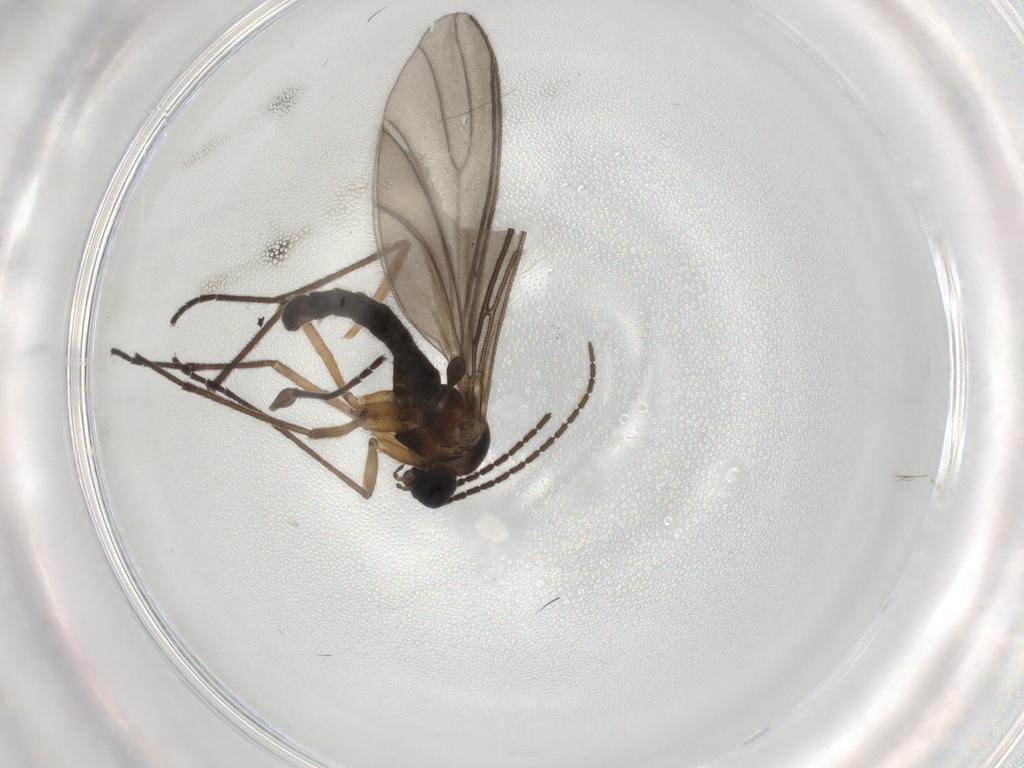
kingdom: Animalia
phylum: Arthropoda
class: Insecta
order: Diptera
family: Sciaridae
